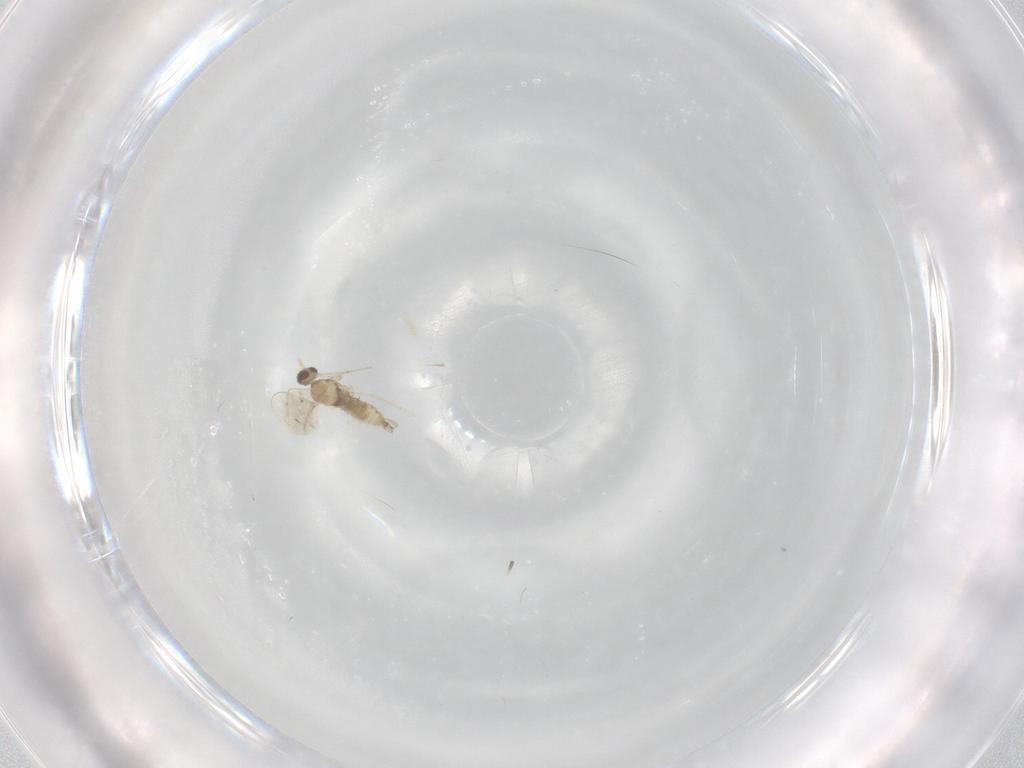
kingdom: Animalia
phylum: Arthropoda
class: Insecta
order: Diptera
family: Cecidomyiidae
